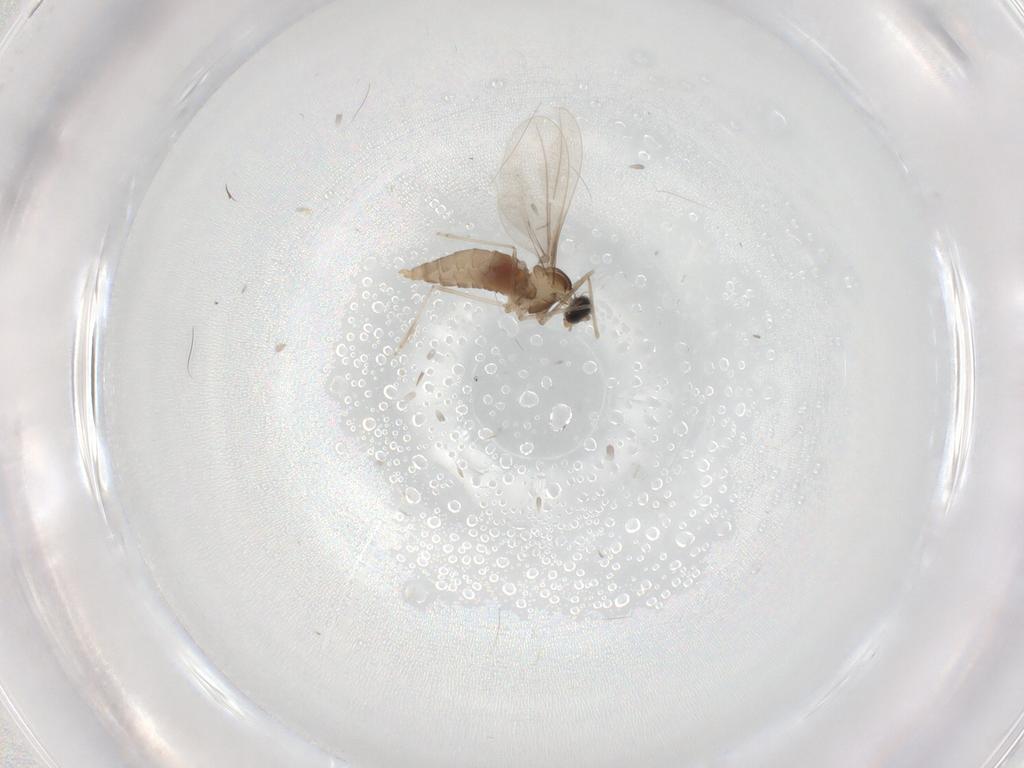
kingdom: Animalia
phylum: Arthropoda
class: Insecta
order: Diptera
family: Cecidomyiidae
